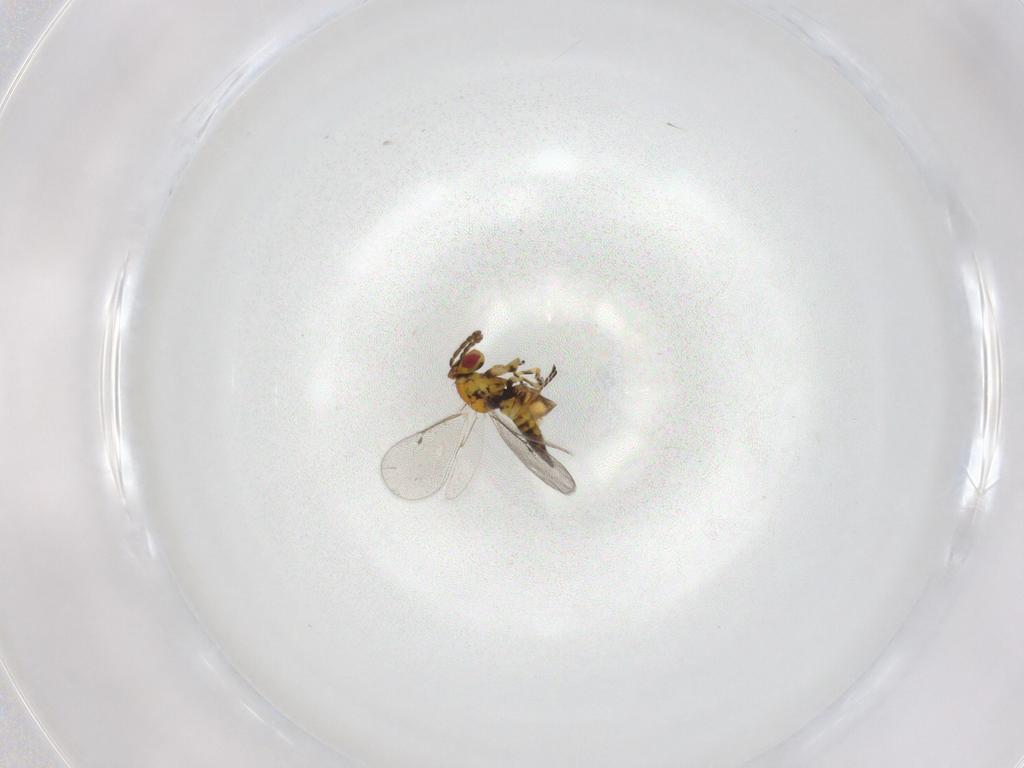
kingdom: Animalia
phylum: Arthropoda
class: Insecta
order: Hymenoptera
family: Eulophidae
